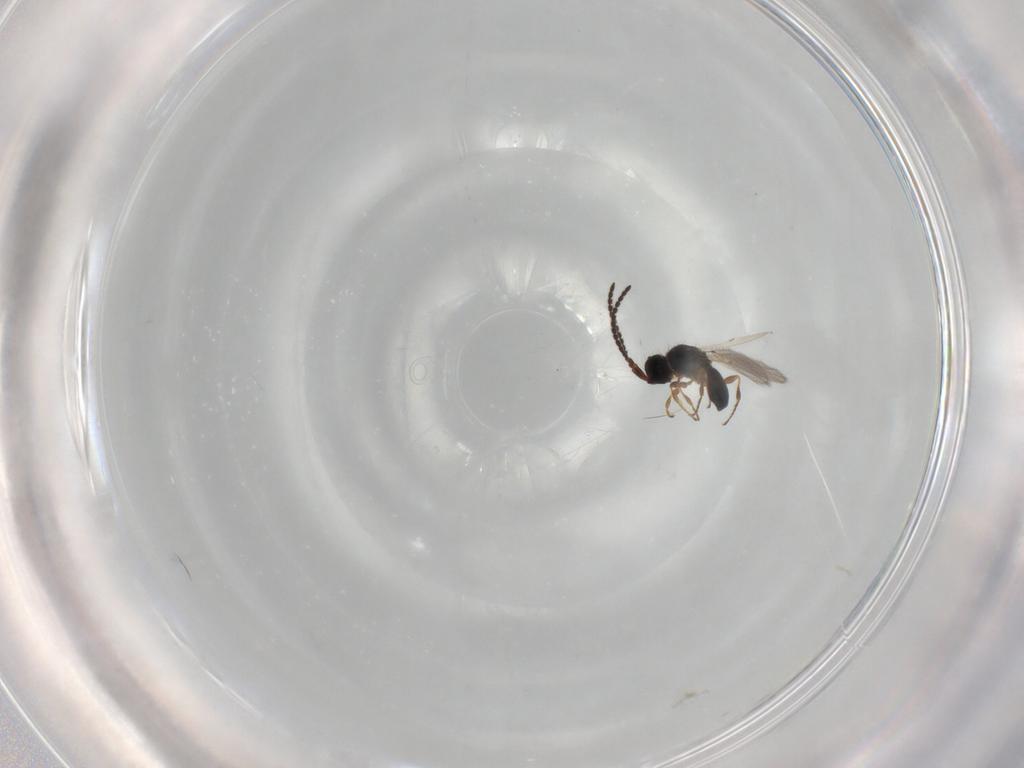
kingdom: Animalia
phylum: Arthropoda
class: Insecta
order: Hymenoptera
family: Diapriidae
